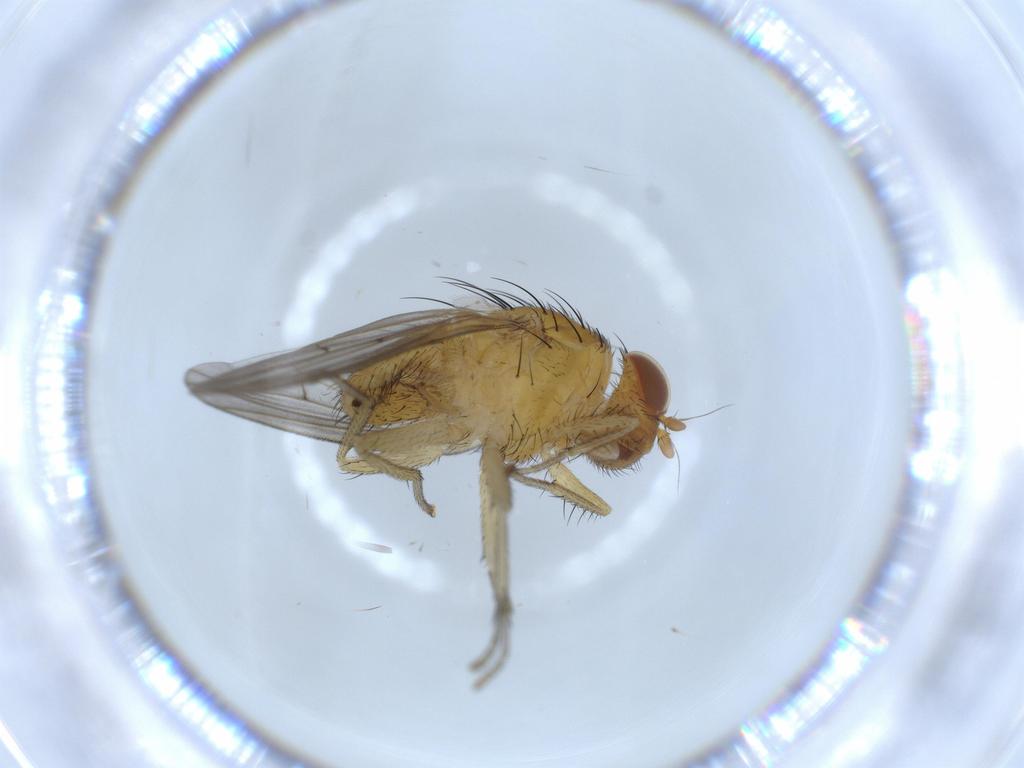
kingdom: Animalia
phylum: Arthropoda
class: Insecta
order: Diptera
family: Cecidomyiidae
